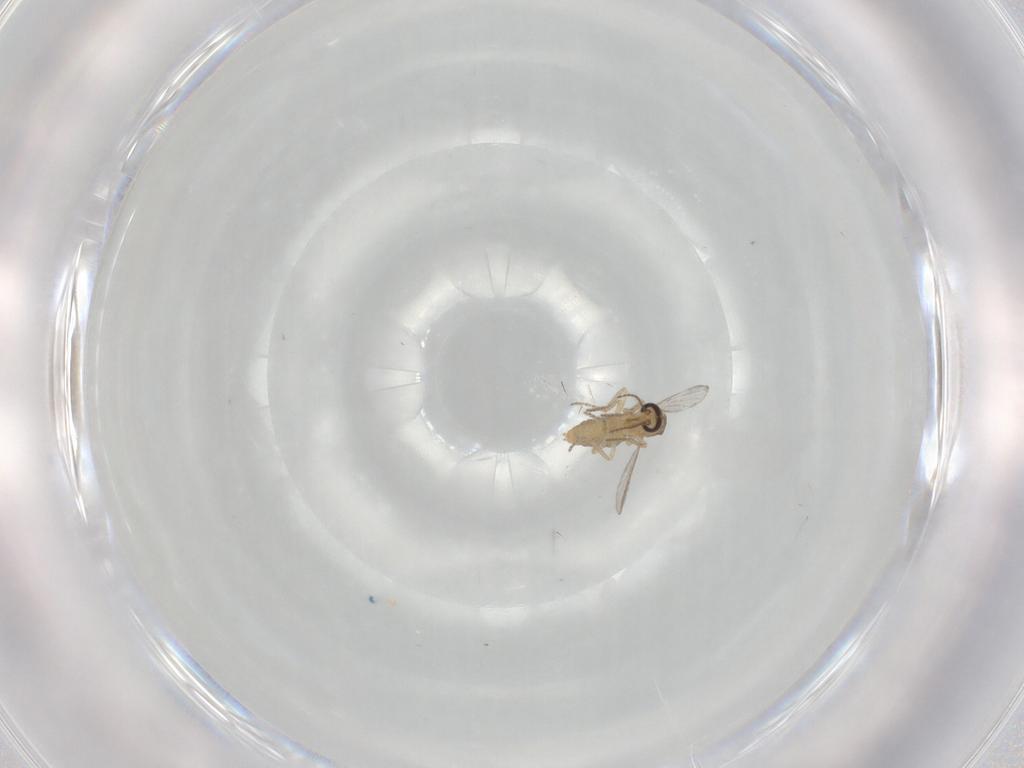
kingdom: Animalia
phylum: Arthropoda
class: Insecta
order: Diptera
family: Ceratopogonidae
